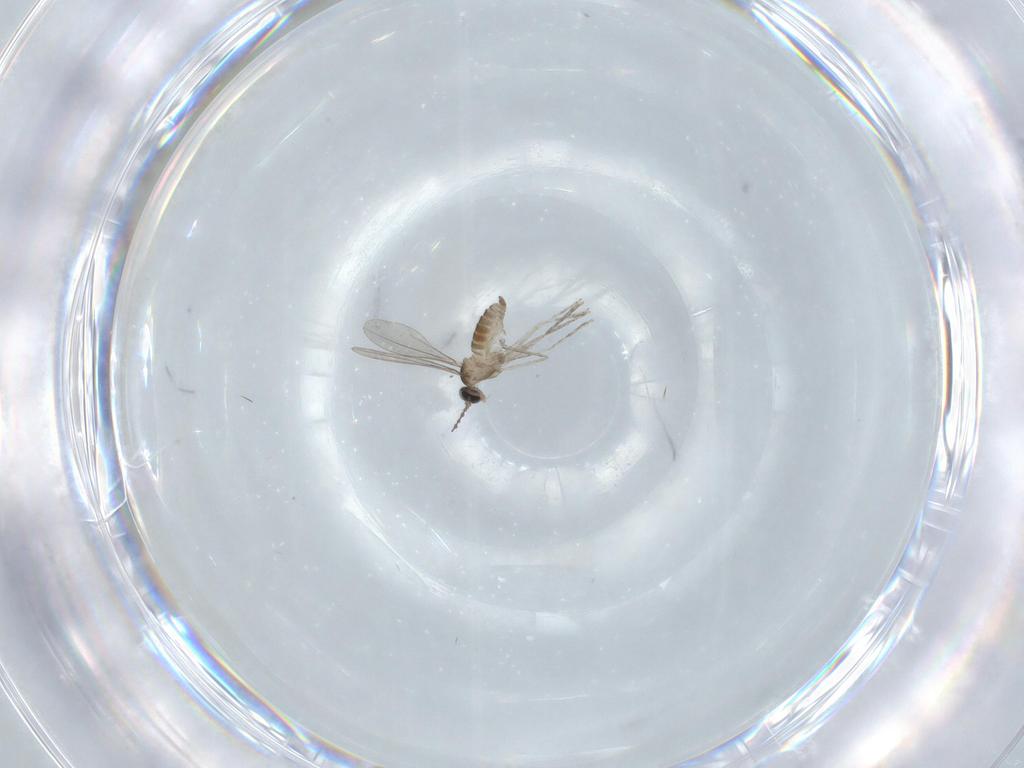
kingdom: Animalia
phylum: Arthropoda
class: Insecta
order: Diptera
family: Cecidomyiidae
